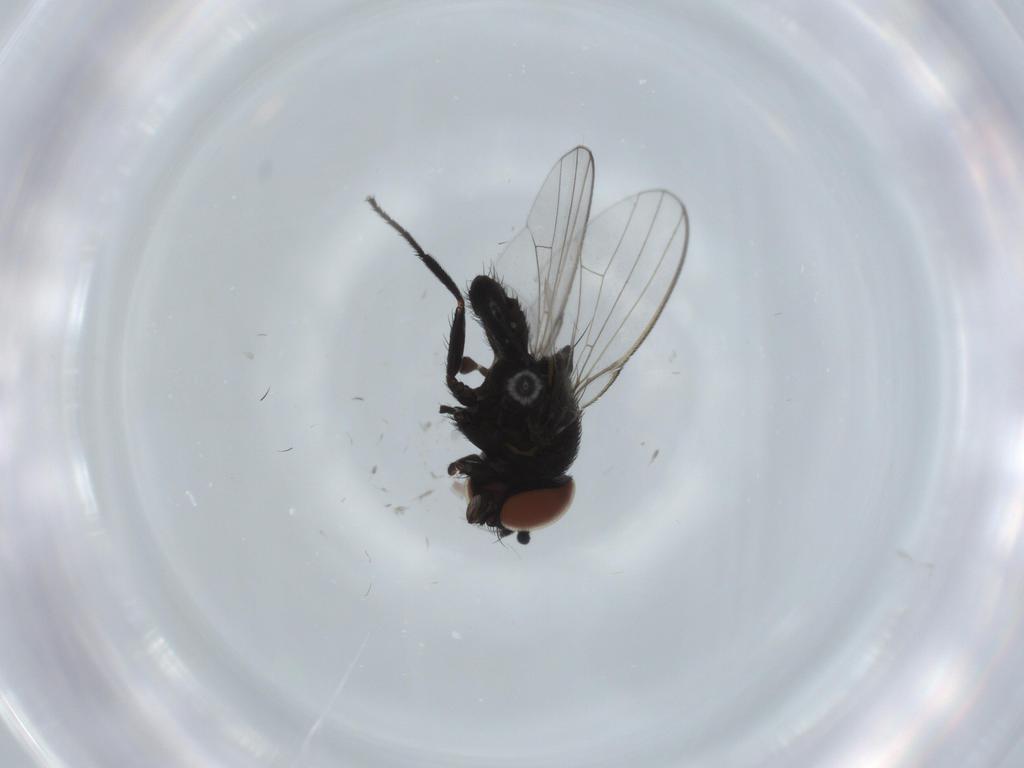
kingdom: Animalia
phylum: Arthropoda
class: Insecta
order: Diptera
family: Milichiidae
